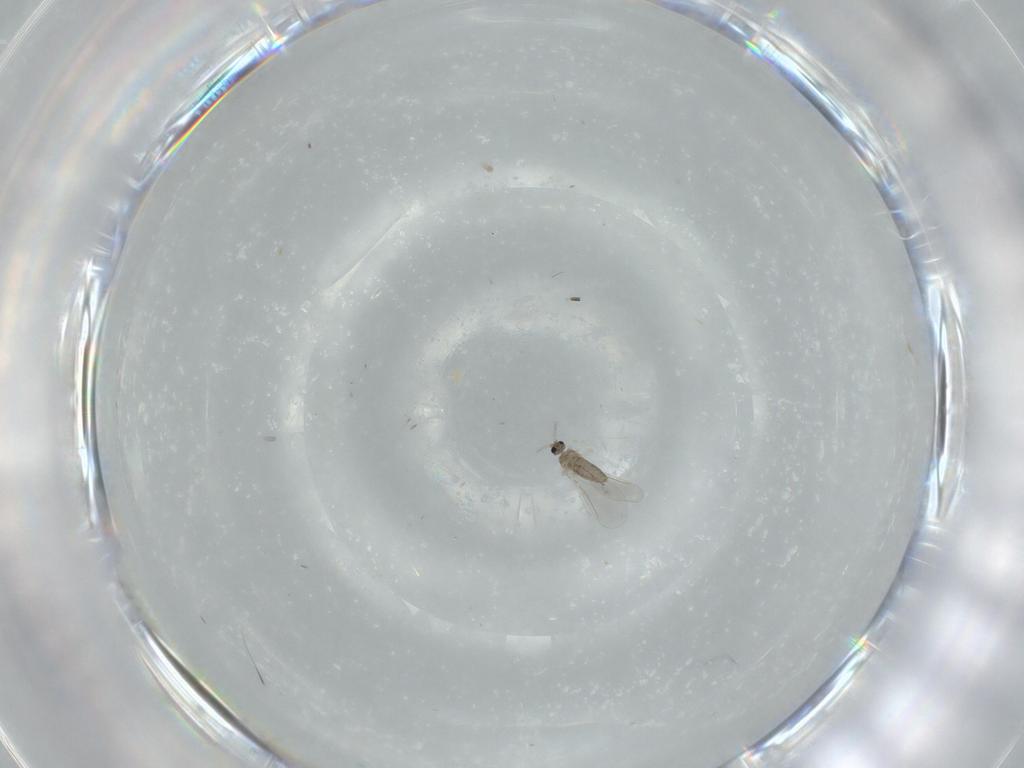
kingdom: Animalia
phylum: Arthropoda
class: Insecta
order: Diptera
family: Cecidomyiidae
